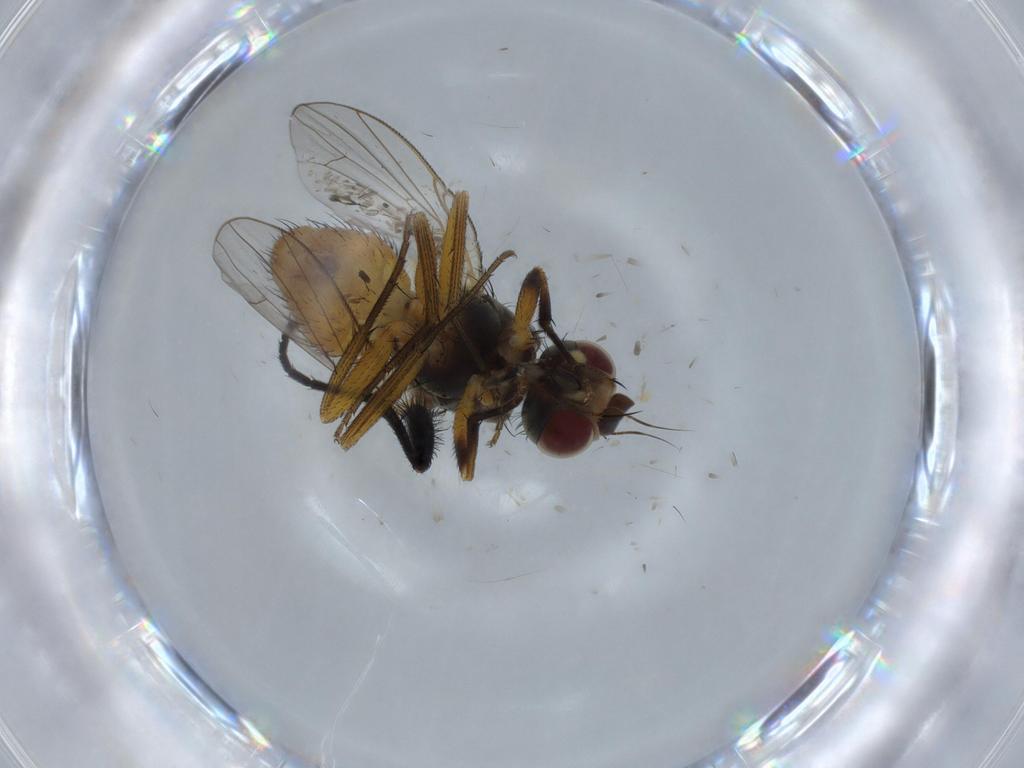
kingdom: Animalia
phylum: Arthropoda
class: Insecta
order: Diptera
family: Muscidae
